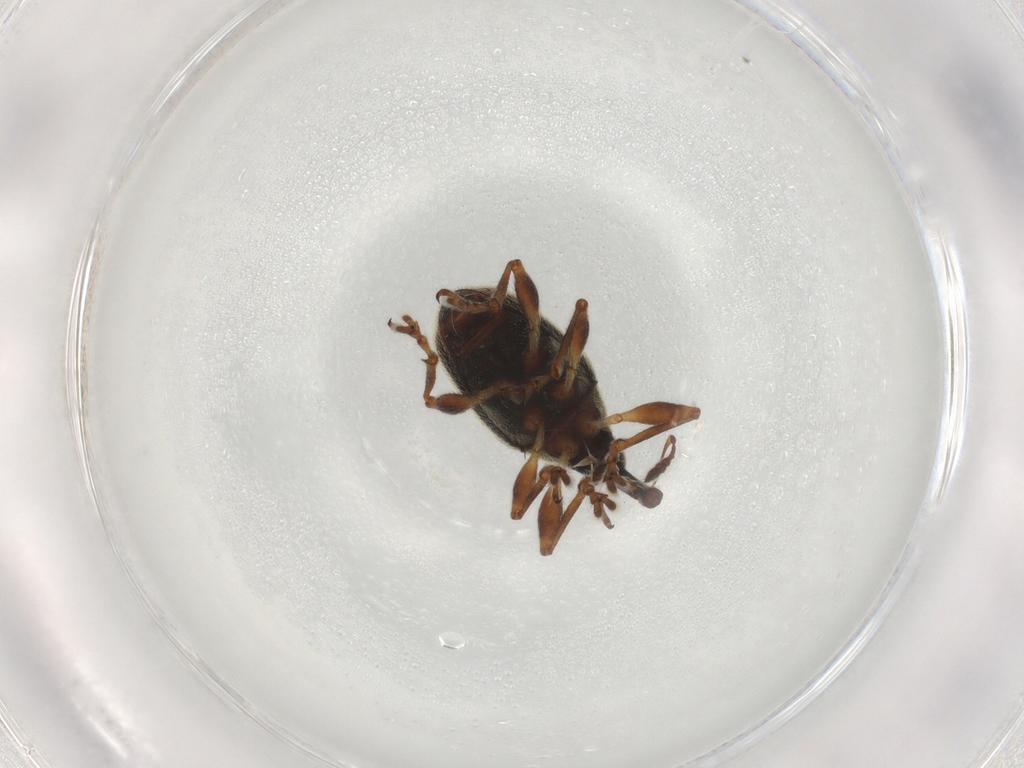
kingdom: Animalia
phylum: Arthropoda
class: Insecta
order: Coleoptera
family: Brentidae
